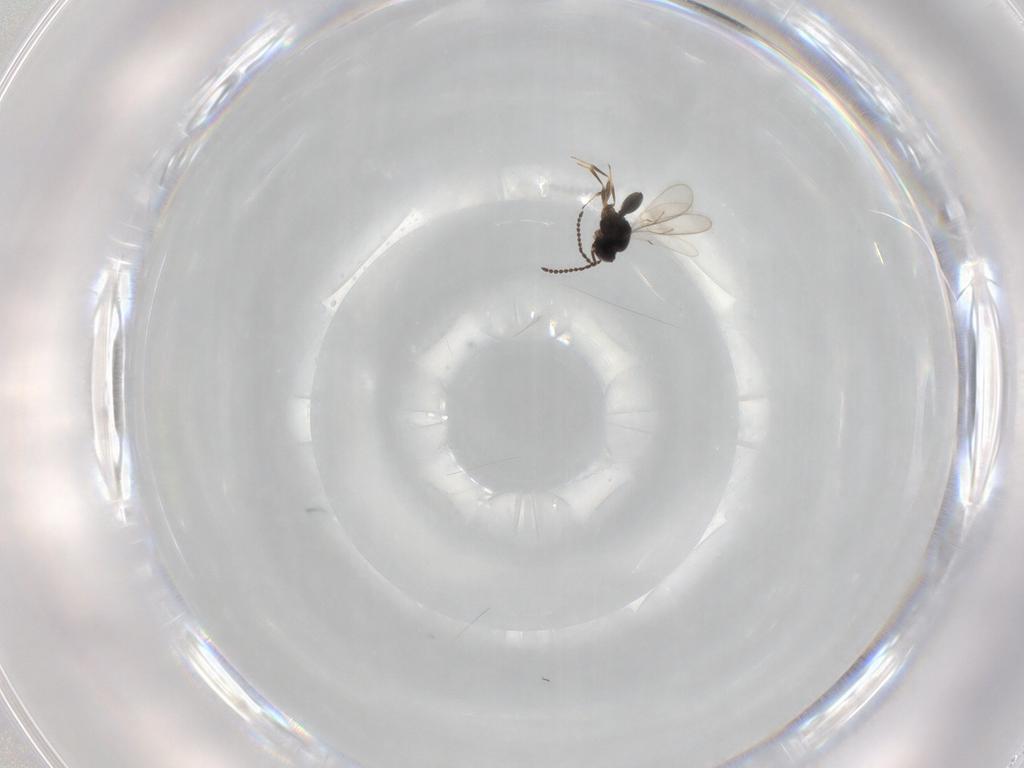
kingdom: Animalia
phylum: Arthropoda
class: Insecta
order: Hymenoptera
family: Scelionidae
